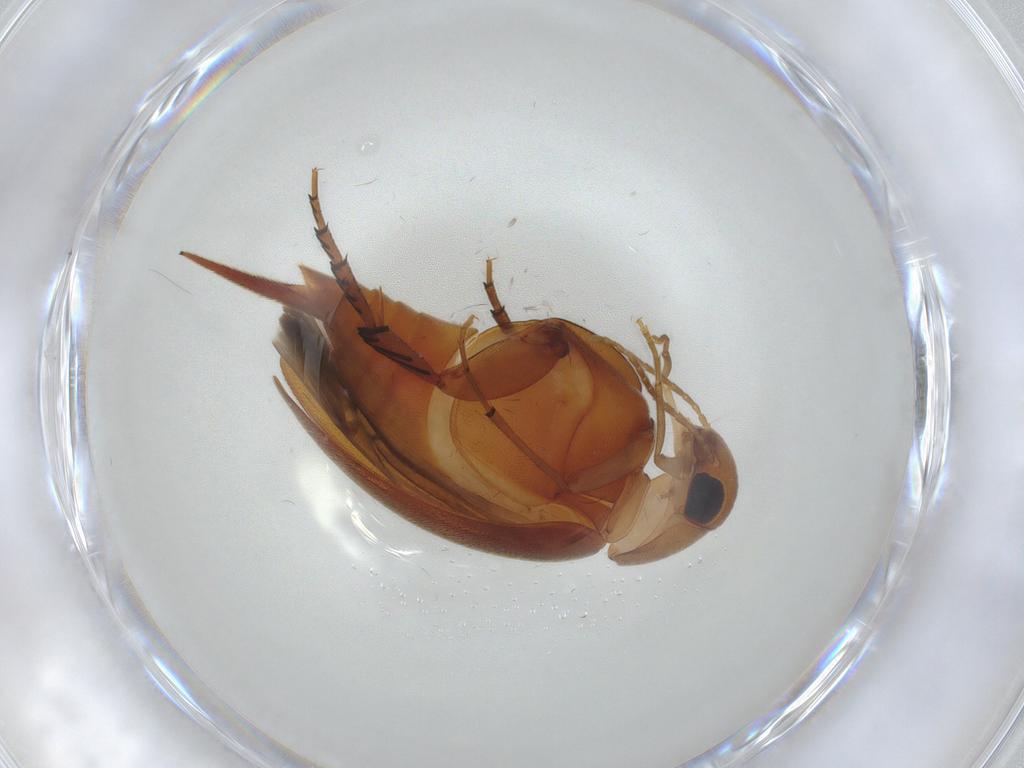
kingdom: Animalia
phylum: Arthropoda
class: Insecta
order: Coleoptera
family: Mordellidae
